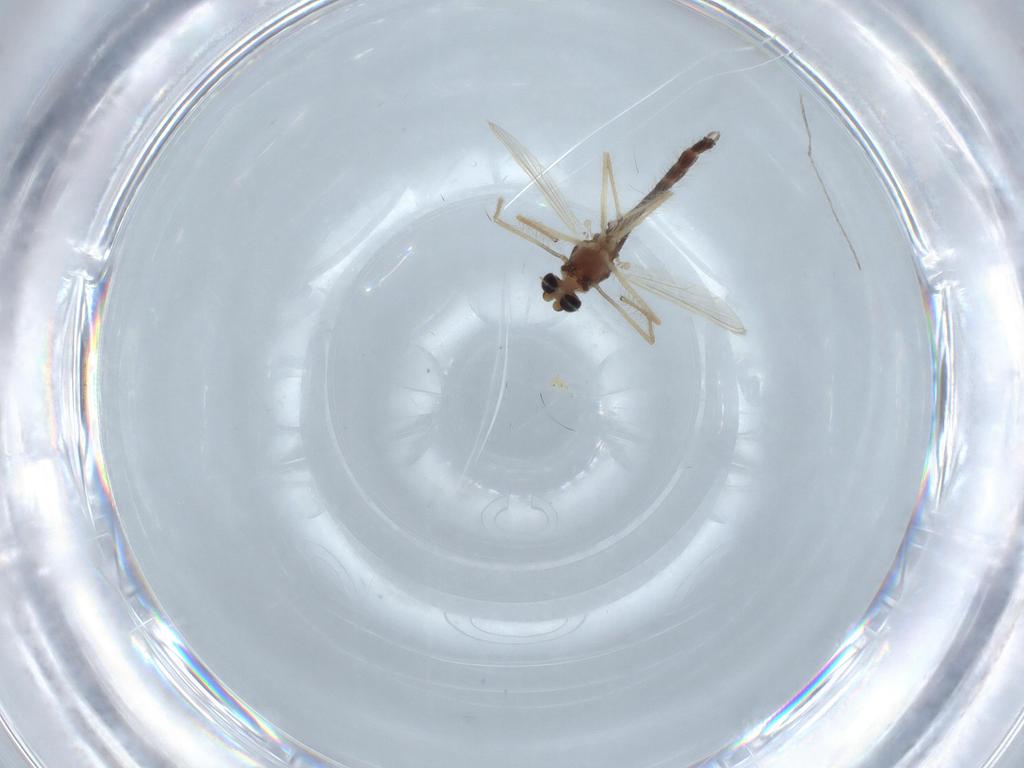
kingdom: Animalia
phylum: Arthropoda
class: Insecta
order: Diptera
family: Chironomidae
